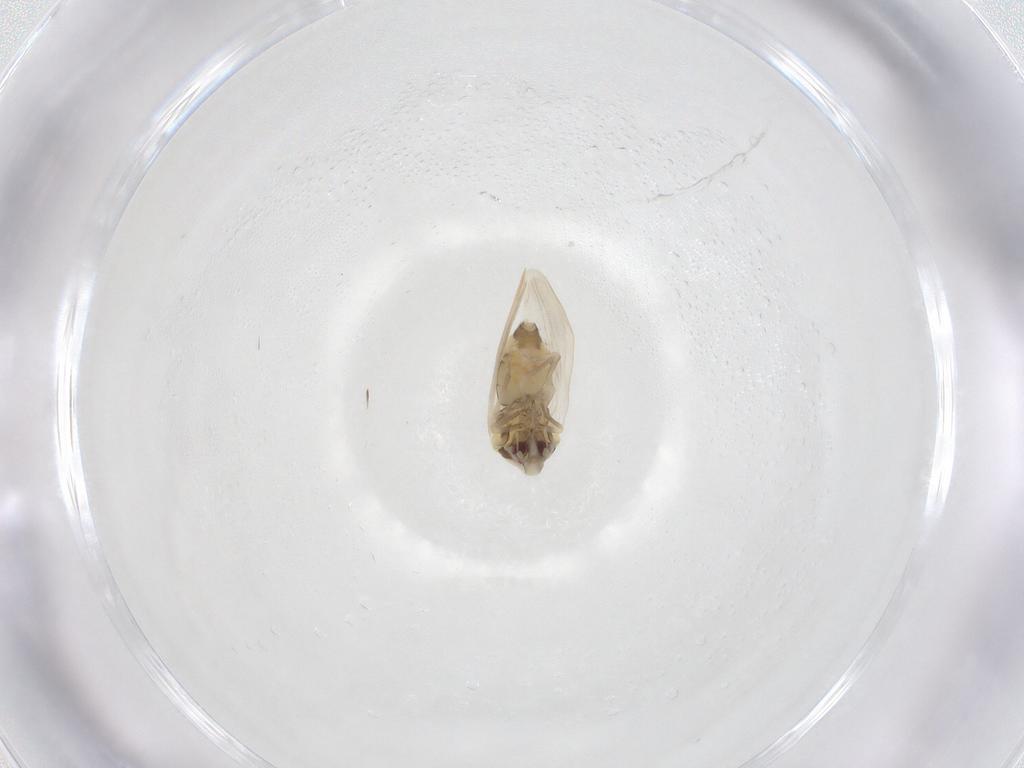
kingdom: Animalia
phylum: Arthropoda
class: Insecta
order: Hemiptera
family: Aleyrodidae
